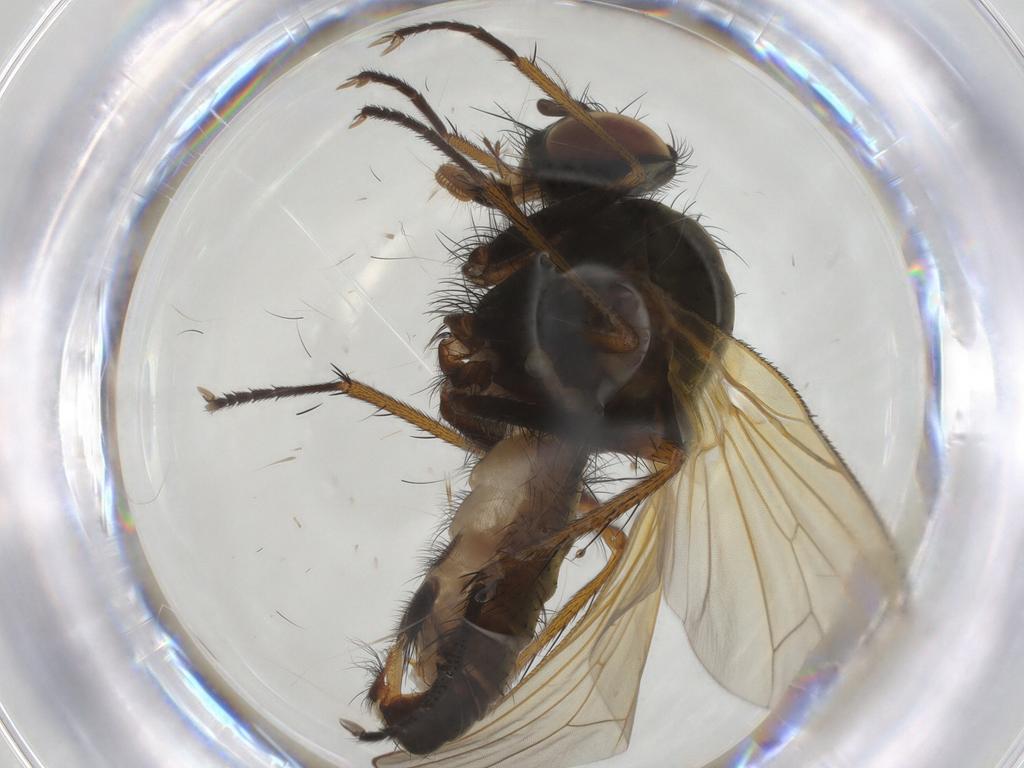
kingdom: Animalia
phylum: Arthropoda
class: Insecta
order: Diptera
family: Anthomyiidae
